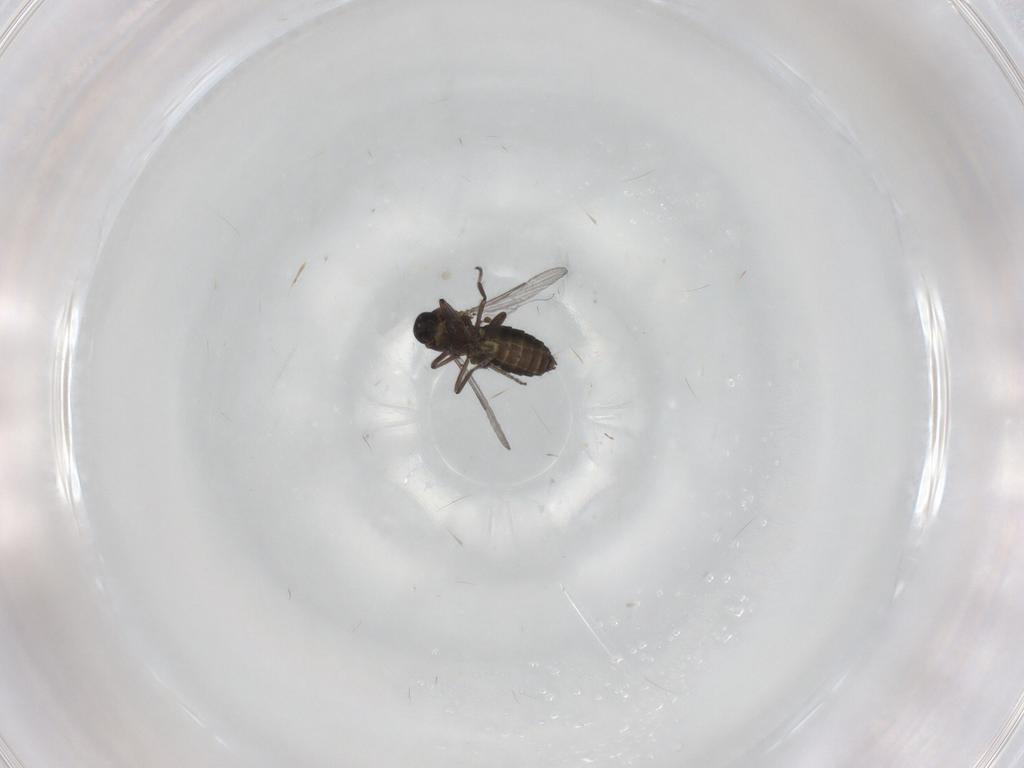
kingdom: Animalia
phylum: Arthropoda
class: Insecta
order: Diptera
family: Ceratopogonidae
